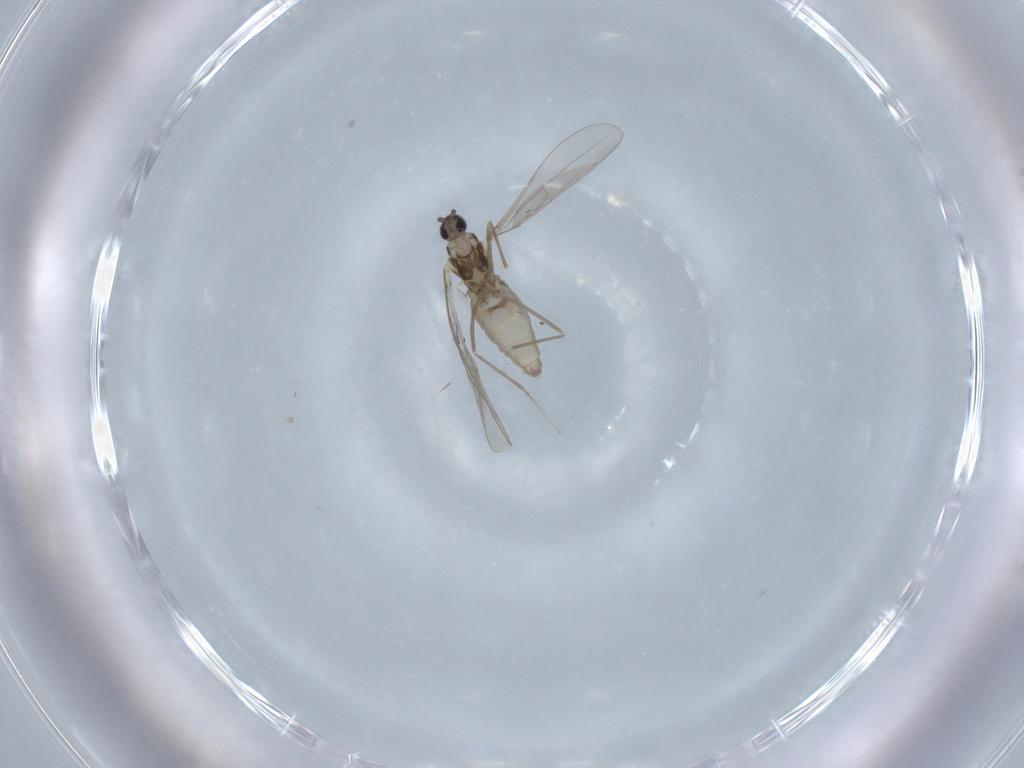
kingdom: Animalia
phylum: Arthropoda
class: Insecta
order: Diptera
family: Cecidomyiidae
